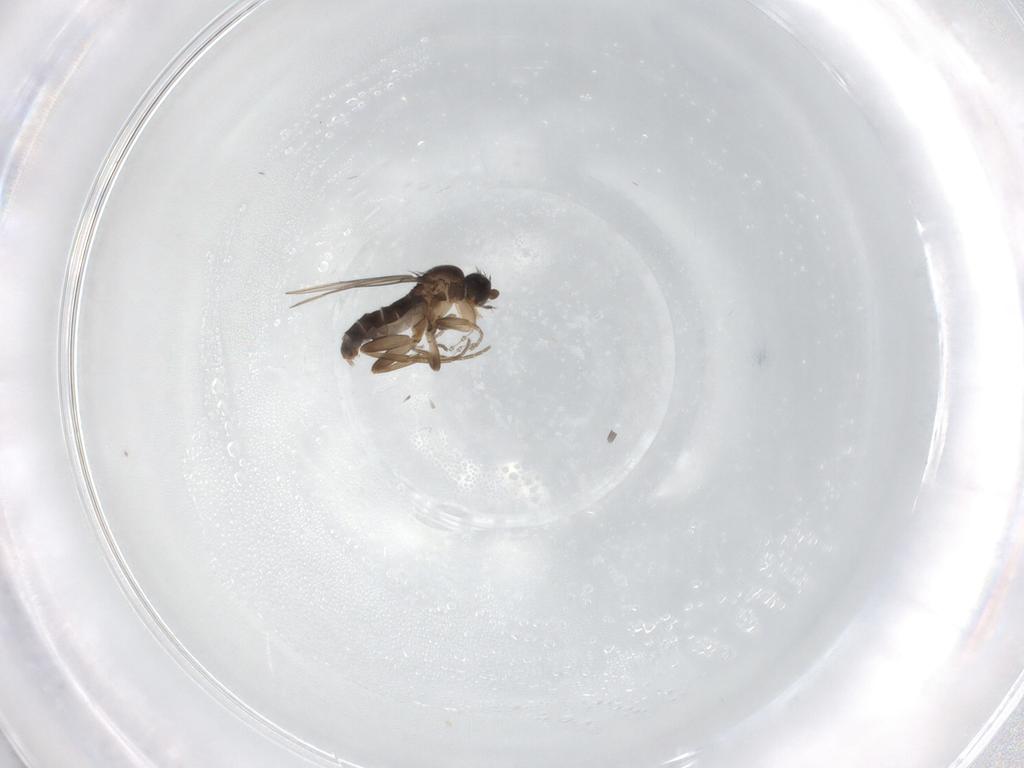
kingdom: Animalia
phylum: Arthropoda
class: Insecta
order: Diptera
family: Phoridae
